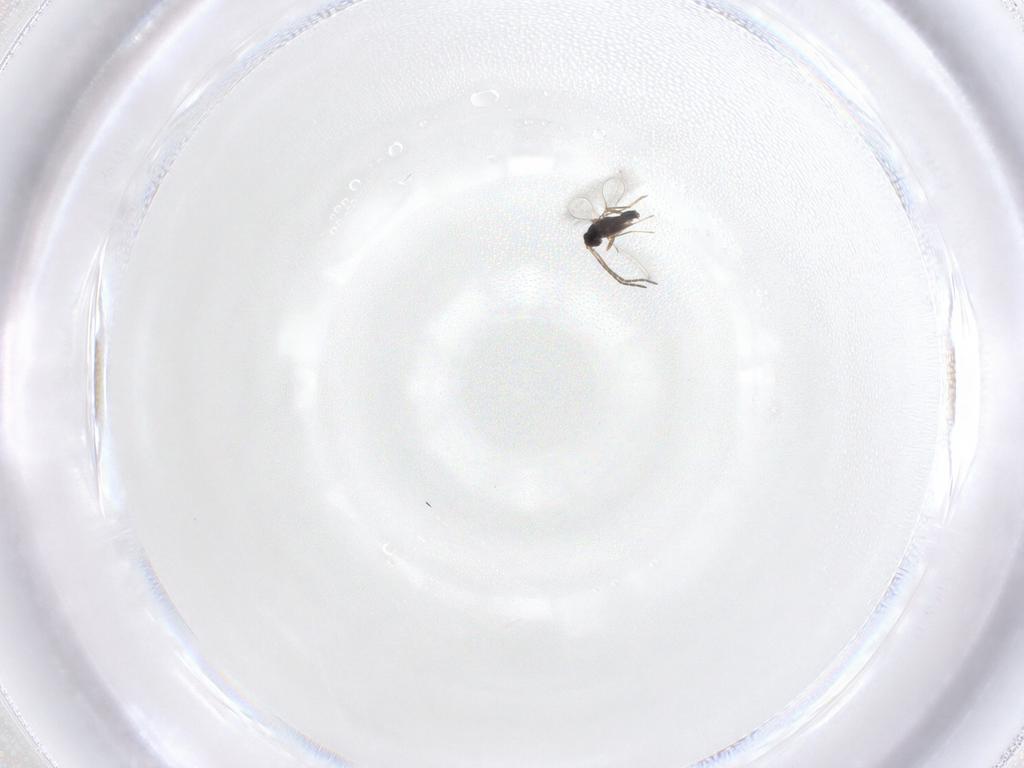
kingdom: Animalia
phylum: Arthropoda
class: Insecta
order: Hymenoptera
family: Mymaridae
